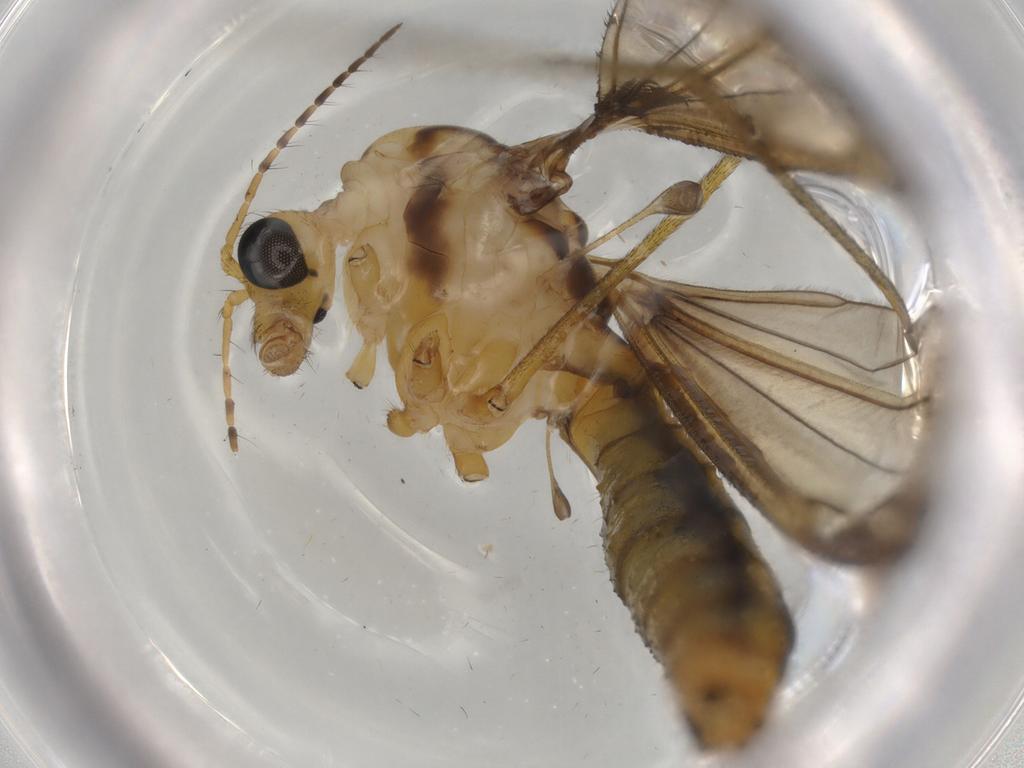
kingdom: Animalia
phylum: Arthropoda
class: Insecta
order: Diptera
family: Tipulidae
